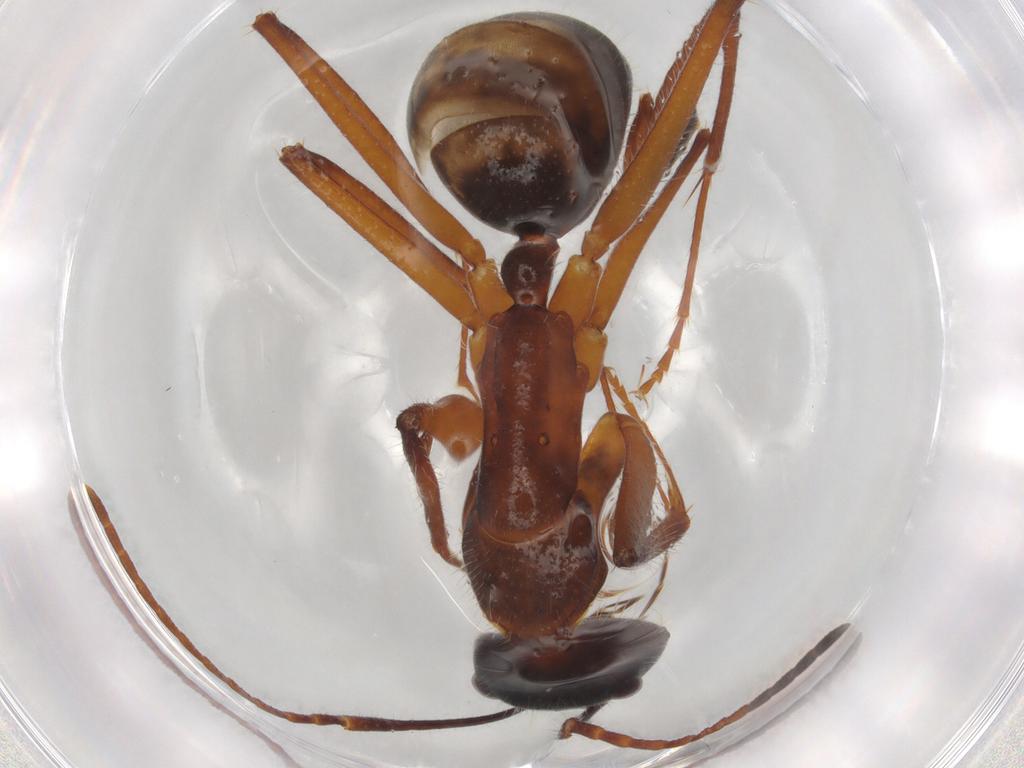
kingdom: Animalia
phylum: Arthropoda
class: Insecta
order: Hymenoptera
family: Formicidae
